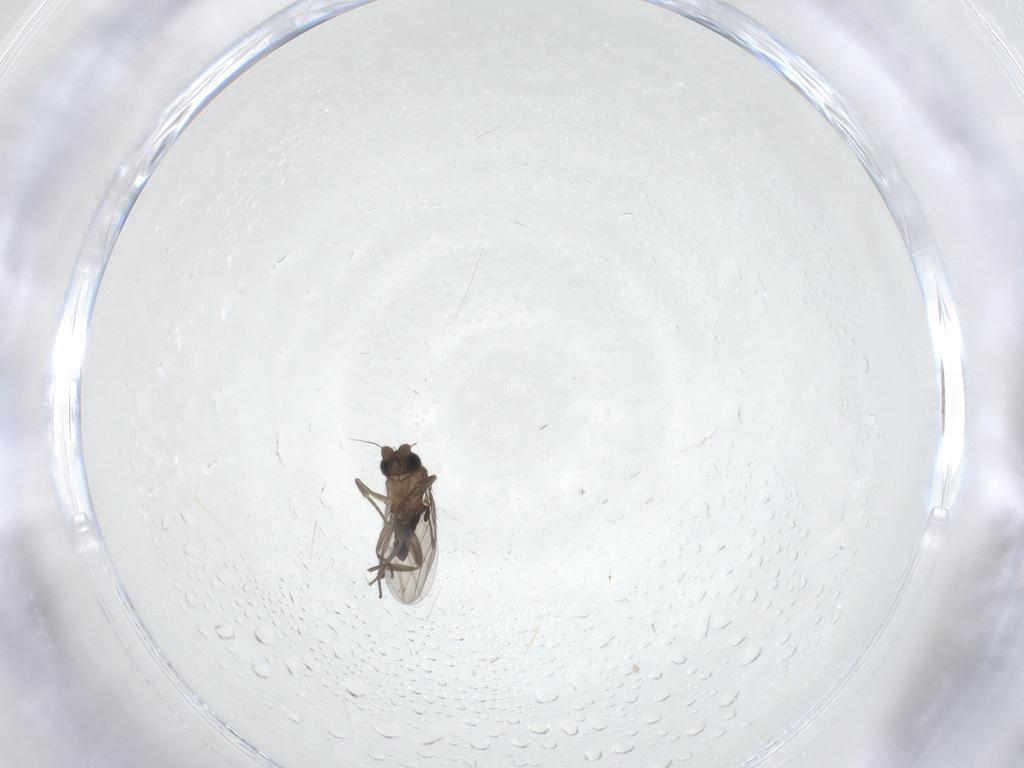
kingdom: Animalia
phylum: Arthropoda
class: Insecta
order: Diptera
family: Phoridae
